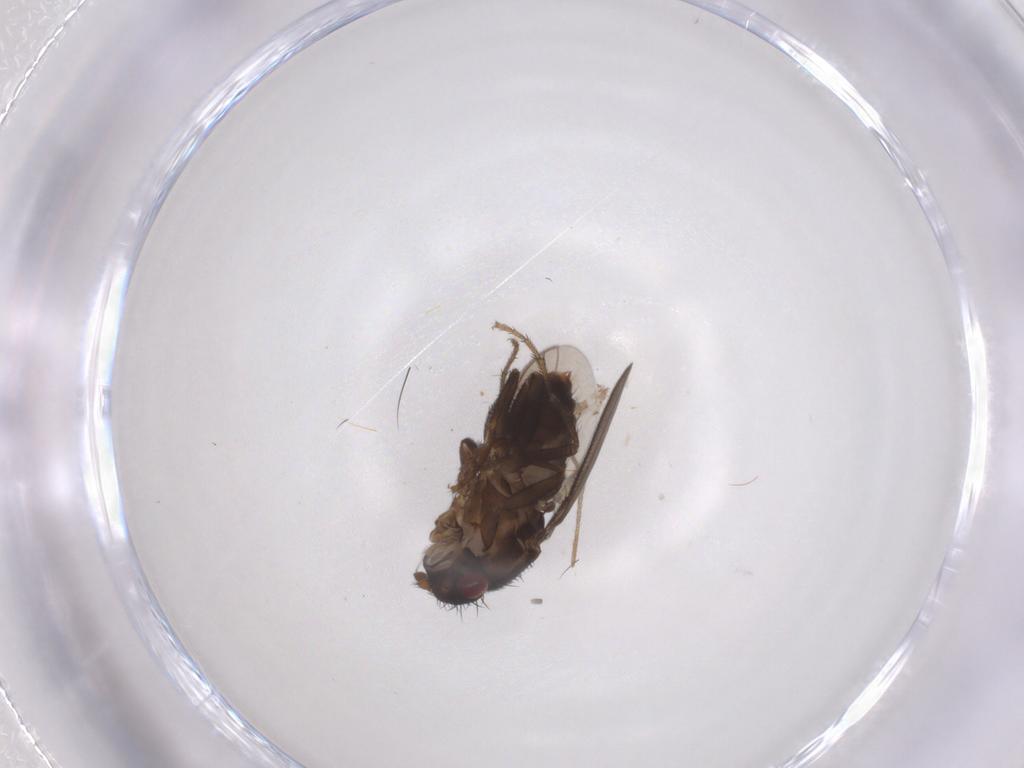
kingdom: Animalia
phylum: Arthropoda
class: Insecta
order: Diptera
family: Sphaeroceridae
